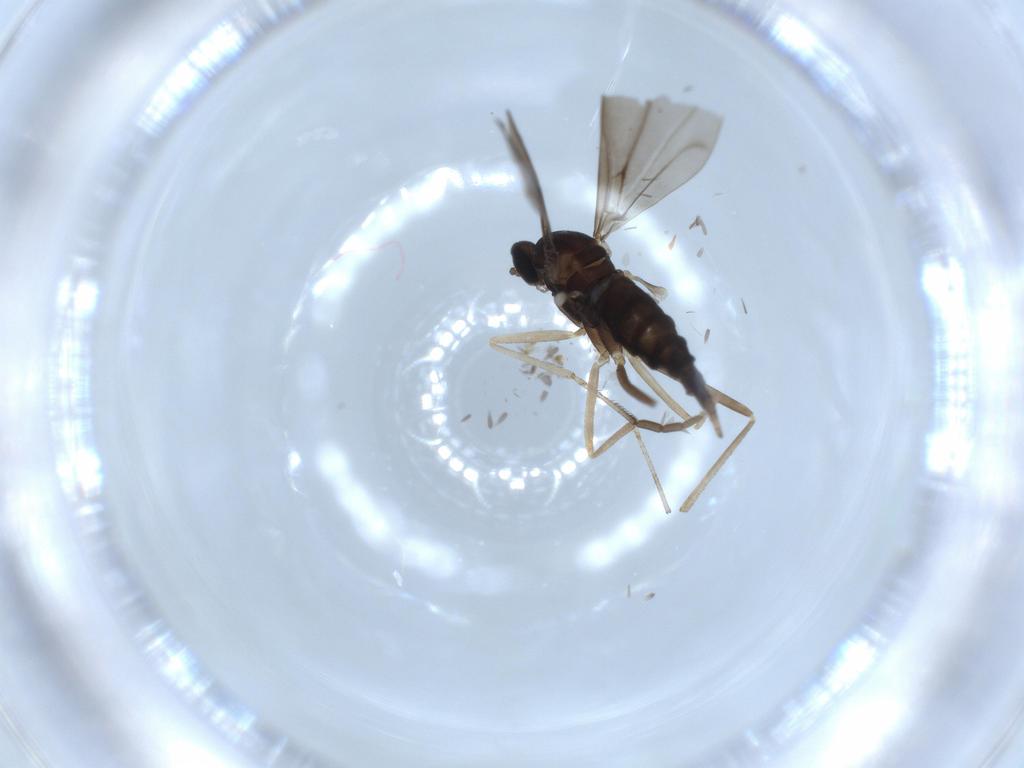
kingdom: Animalia
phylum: Arthropoda
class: Insecta
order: Diptera
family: Cecidomyiidae
